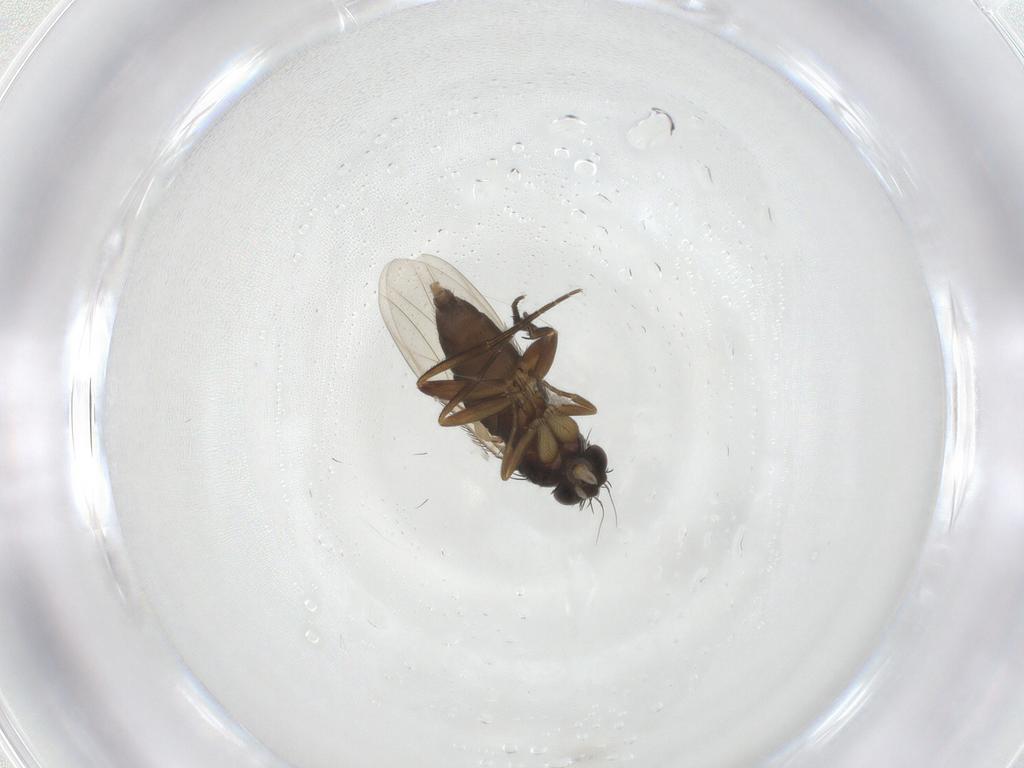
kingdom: Animalia
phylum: Arthropoda
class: Insecta
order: Diptera
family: Phoridae
